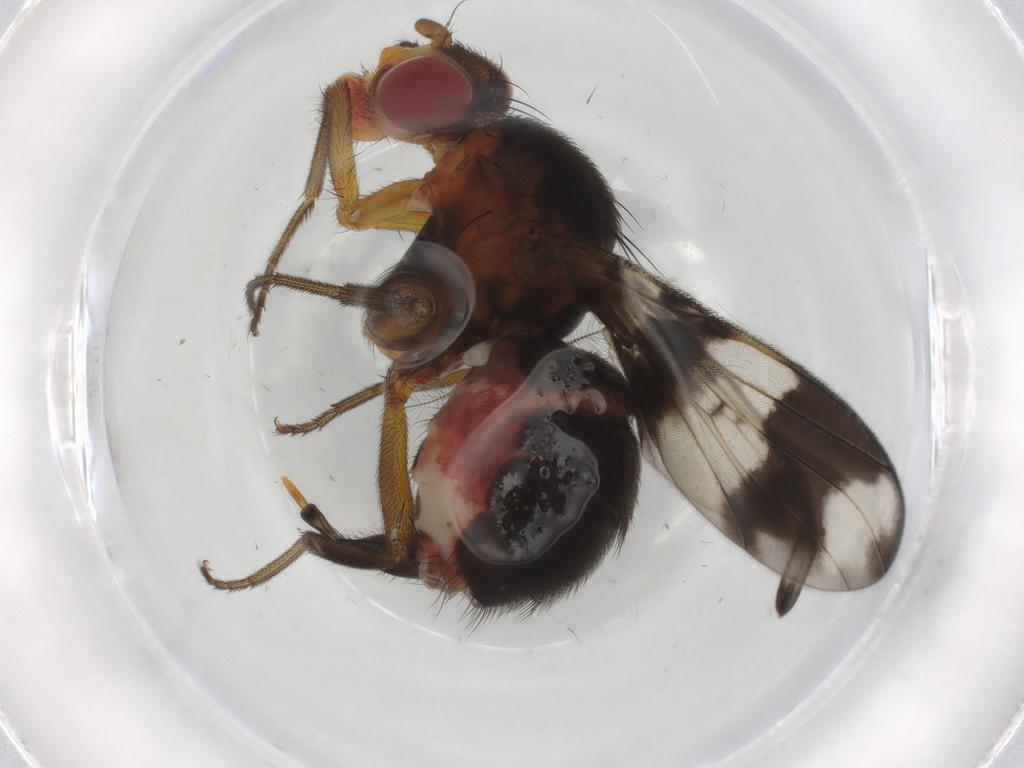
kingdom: Animalia
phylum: Arthropoda
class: Insecta
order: Diptera
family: Richardiidae
